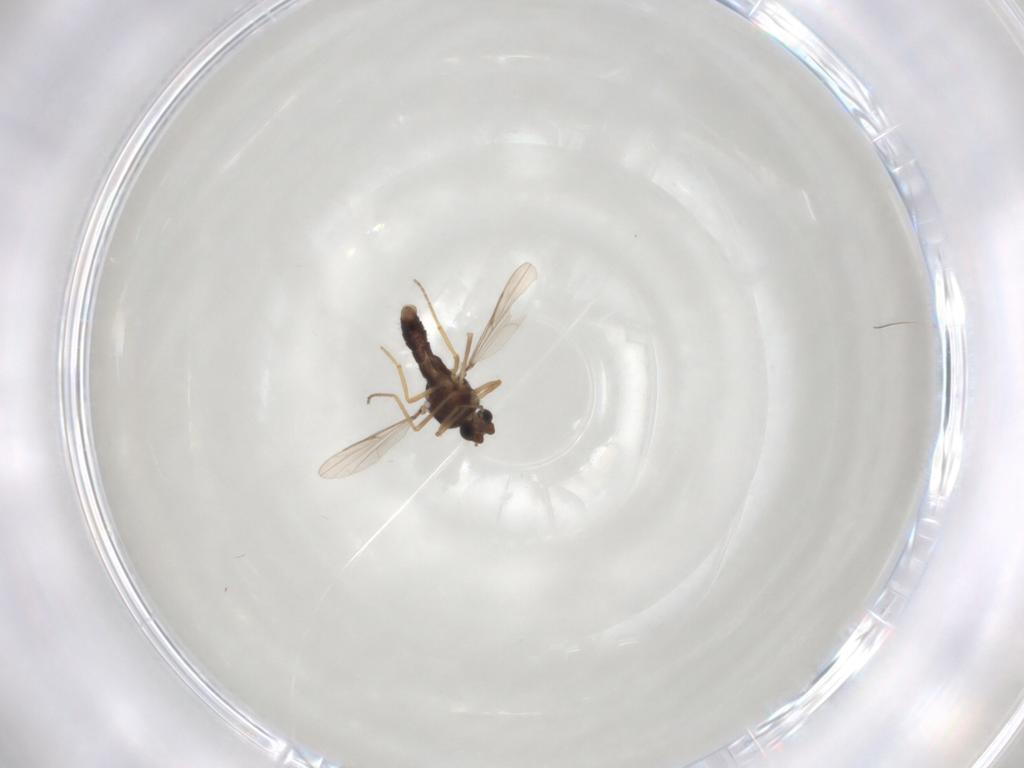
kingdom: Animalia
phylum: Arthropoda
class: Insecta
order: Diptera
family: Ceratopogonidae
